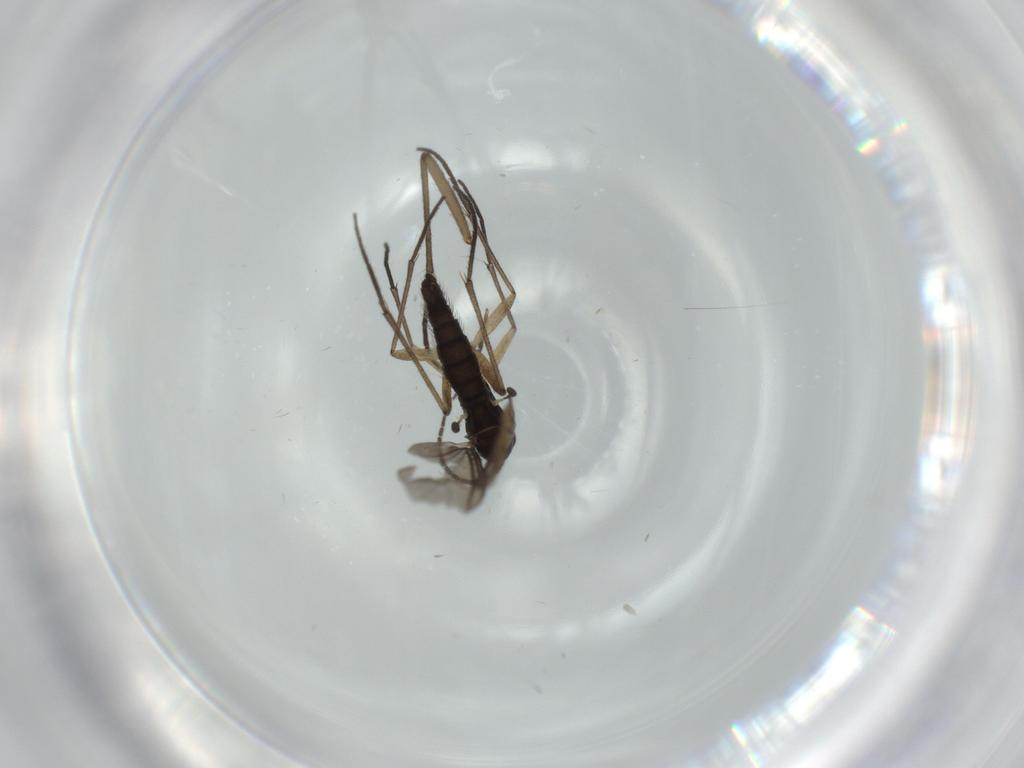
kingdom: Animalia
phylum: Arthropoda
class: Insecta
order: Diptera
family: Sciaridae
